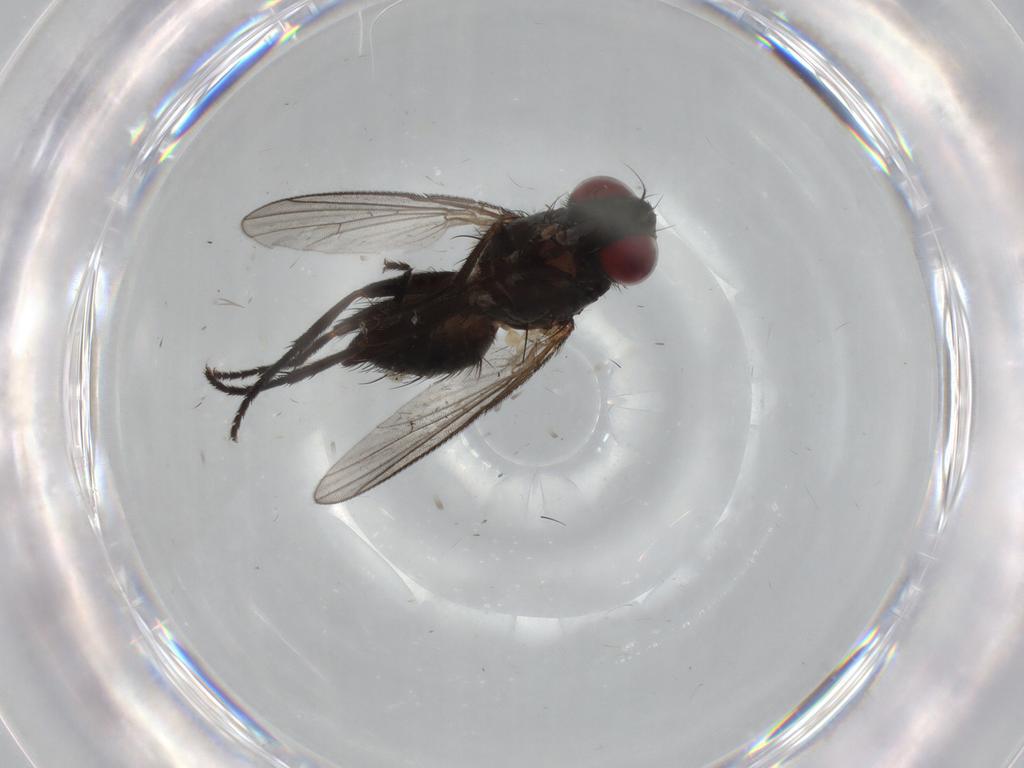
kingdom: Animalia
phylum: Arthropoda
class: Insecta
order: Diptera
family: Muscidae
